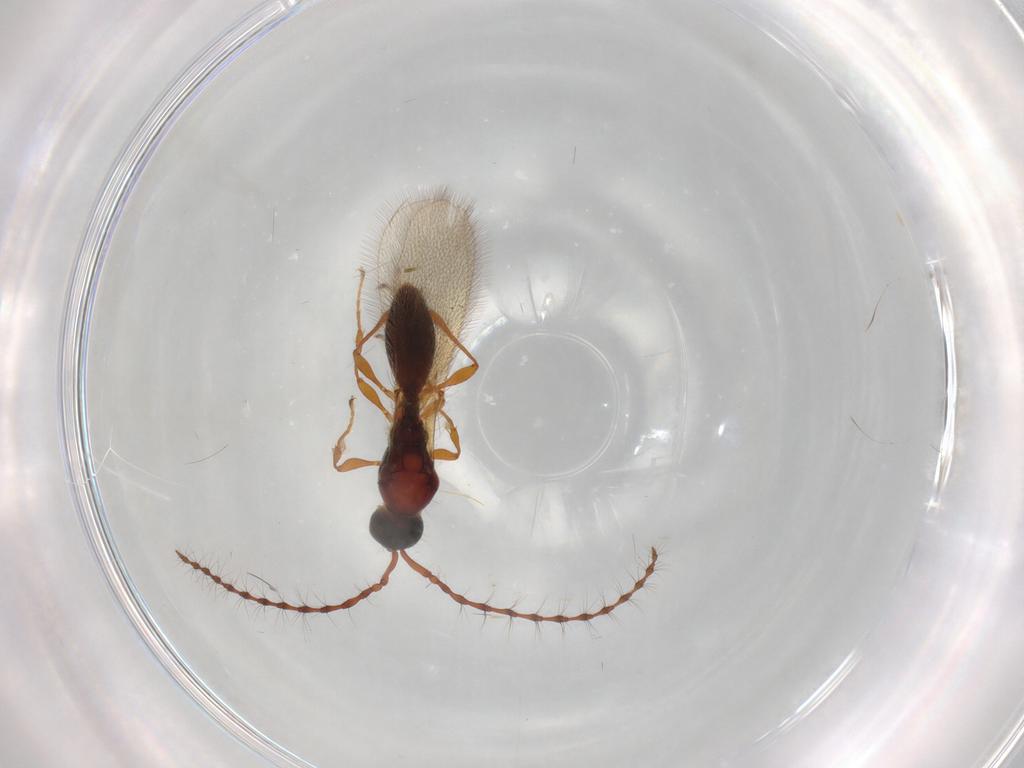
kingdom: Animalia
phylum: Arthropoda
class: Insecta
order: Hymenoptera
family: Diapriidae
